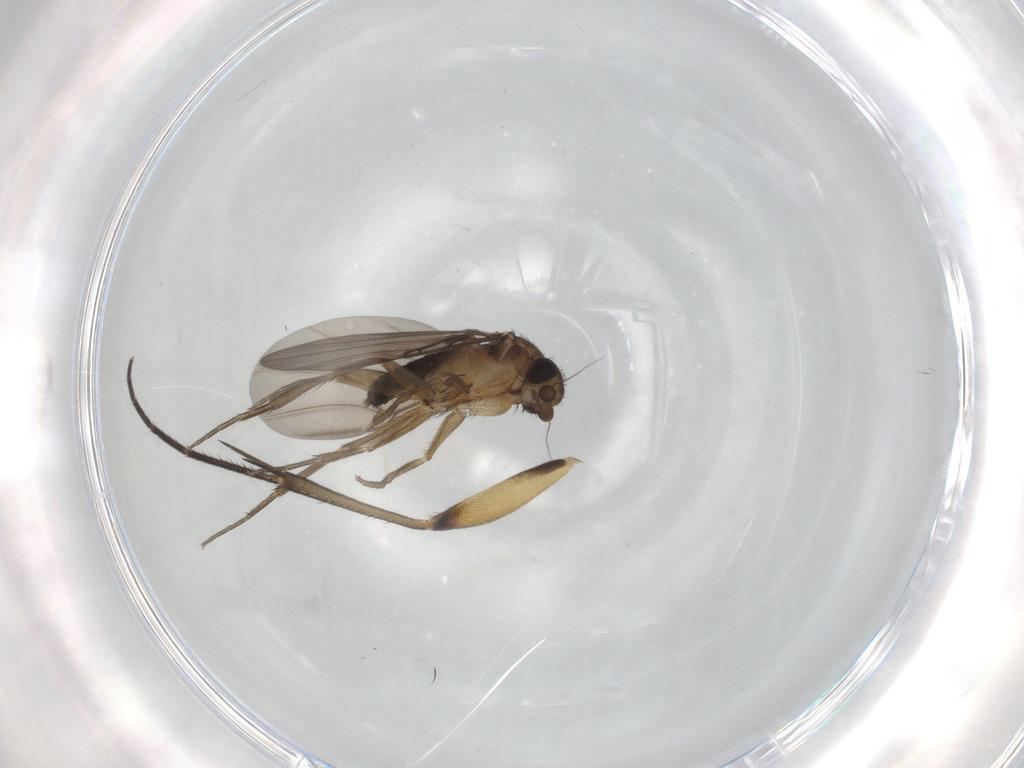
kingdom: Animalia
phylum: Arthropoda
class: Insecta
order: Diptera
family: Phoridae
